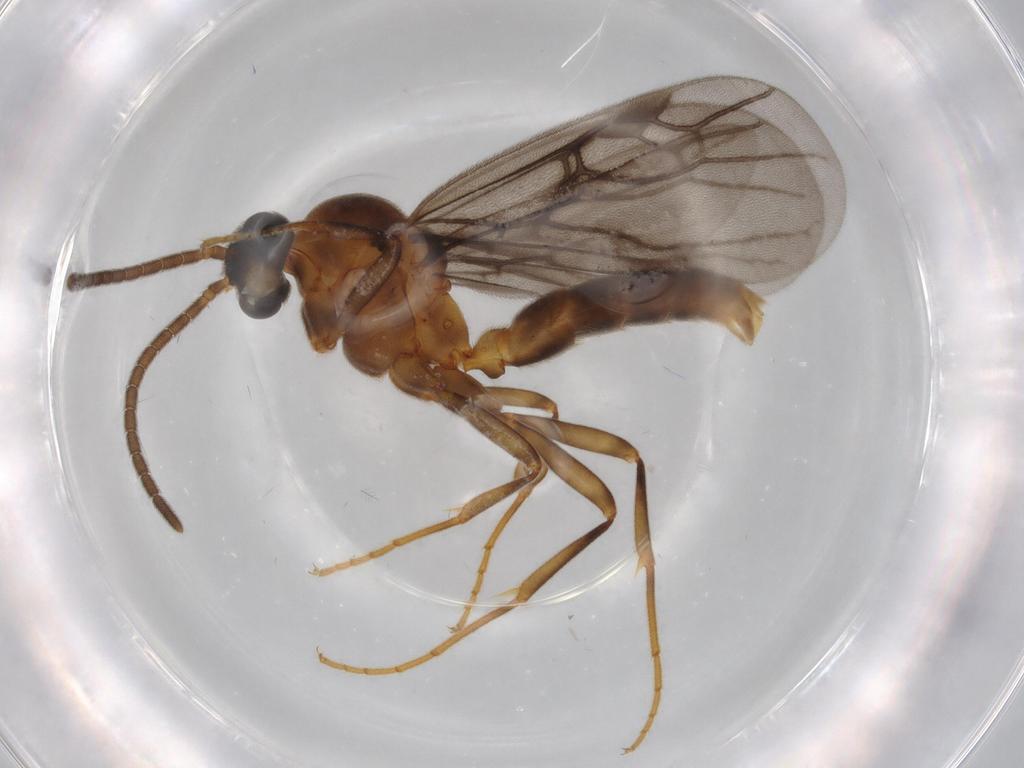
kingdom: Animalia
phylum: Arthropoda
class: Insecta
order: Hymenoptera
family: Formicidae
